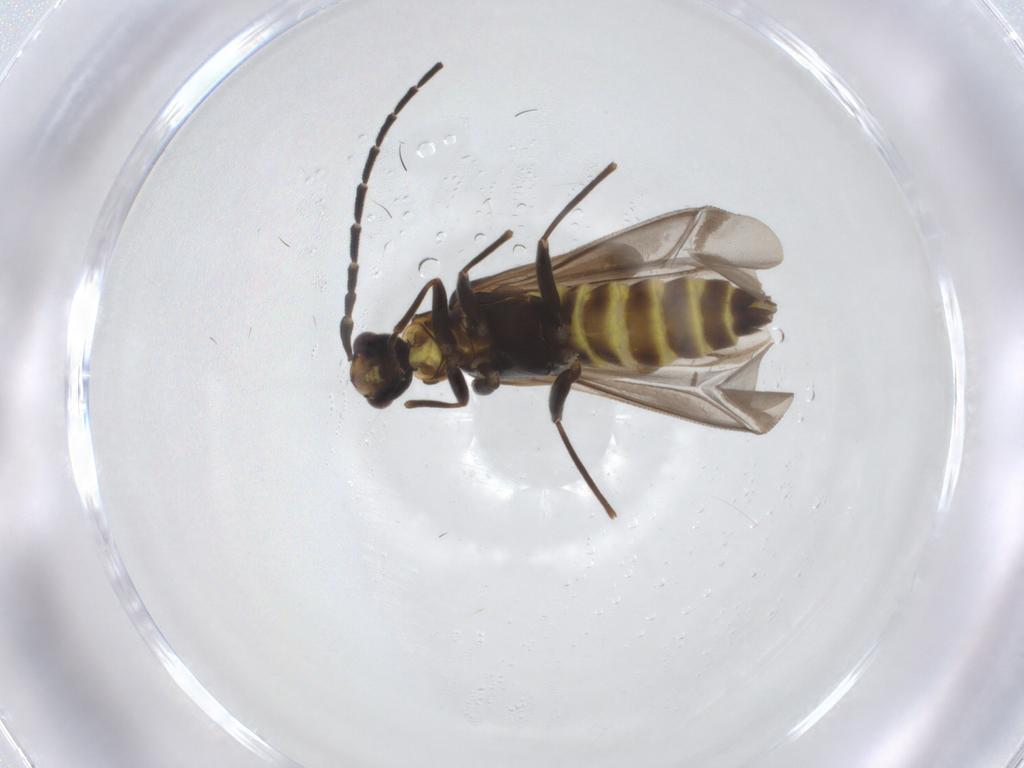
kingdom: Animalia
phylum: Arthropoda
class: Insecta
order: Coleoptera
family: Cantharidae
